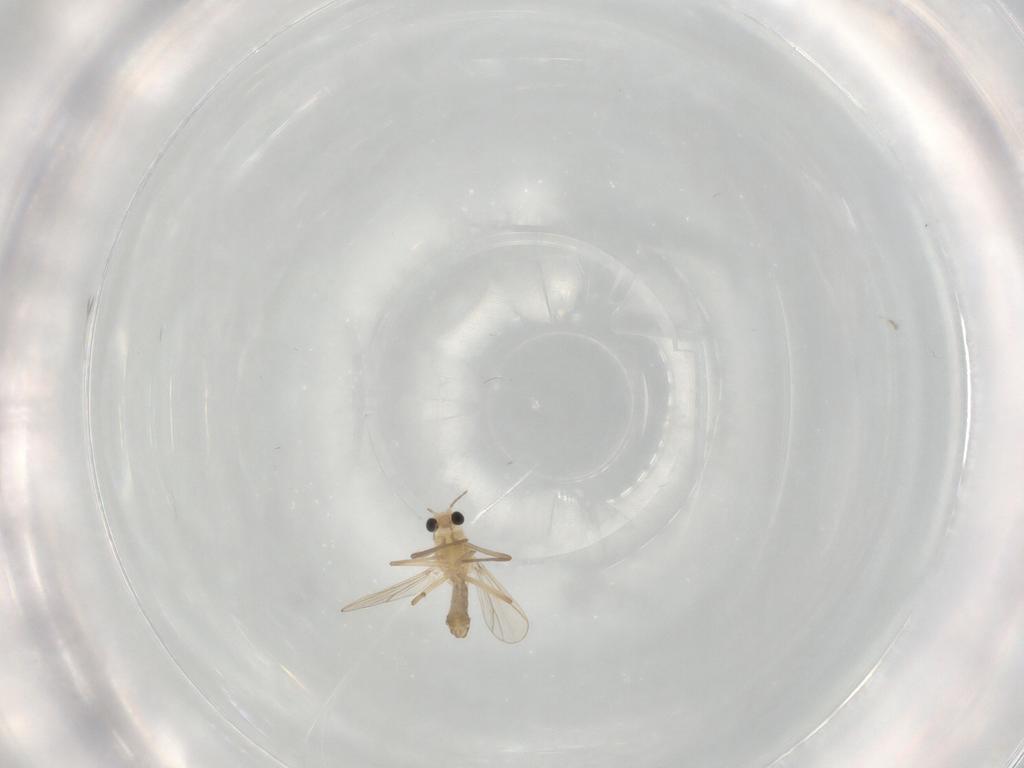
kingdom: Animalia
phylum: Arthropoda
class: Insecta
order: Diptera
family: Chironomidae
